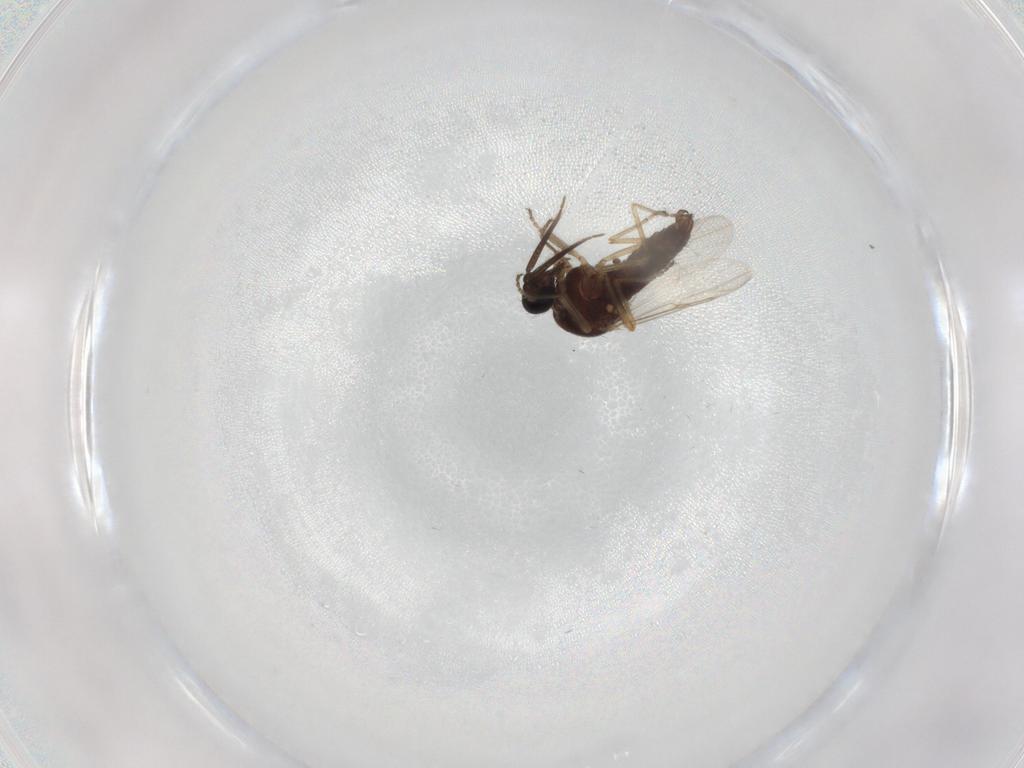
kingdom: Animalia
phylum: Arthropoda
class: Insecta
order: Diptera
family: Ceratopogonidae
